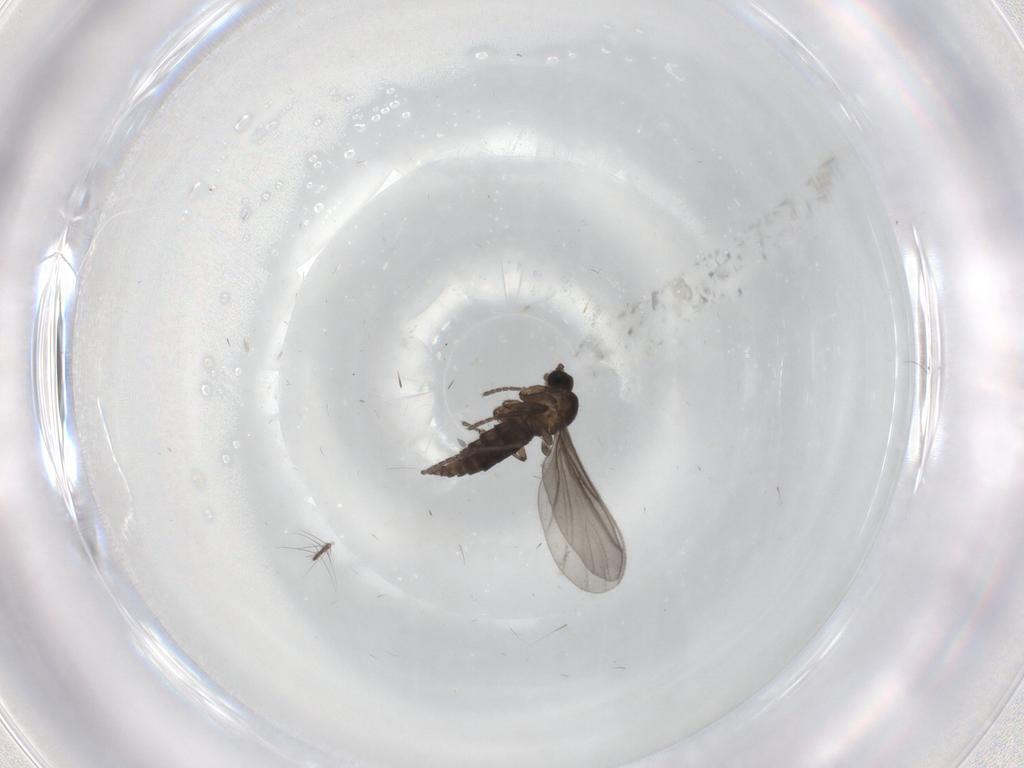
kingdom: Animalia
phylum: Arthropoda
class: Insecta
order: Diptera
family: Culicidae
